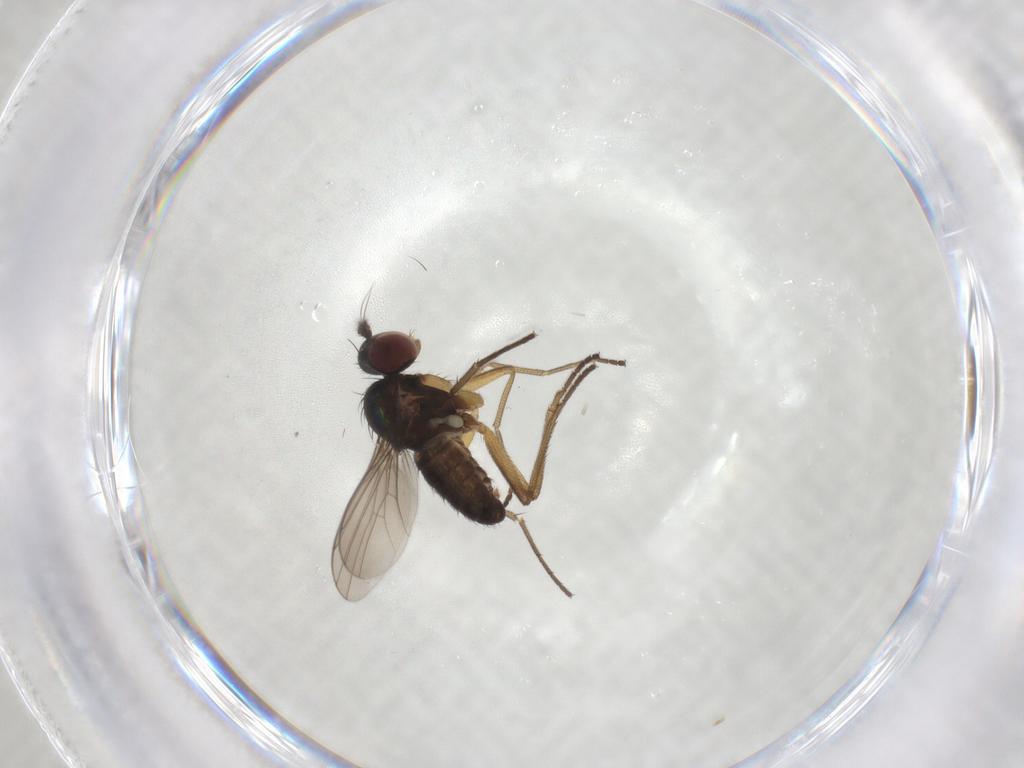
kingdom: Animalia
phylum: Arthropoda
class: Insecta
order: Diptera
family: Dolichopodidae
